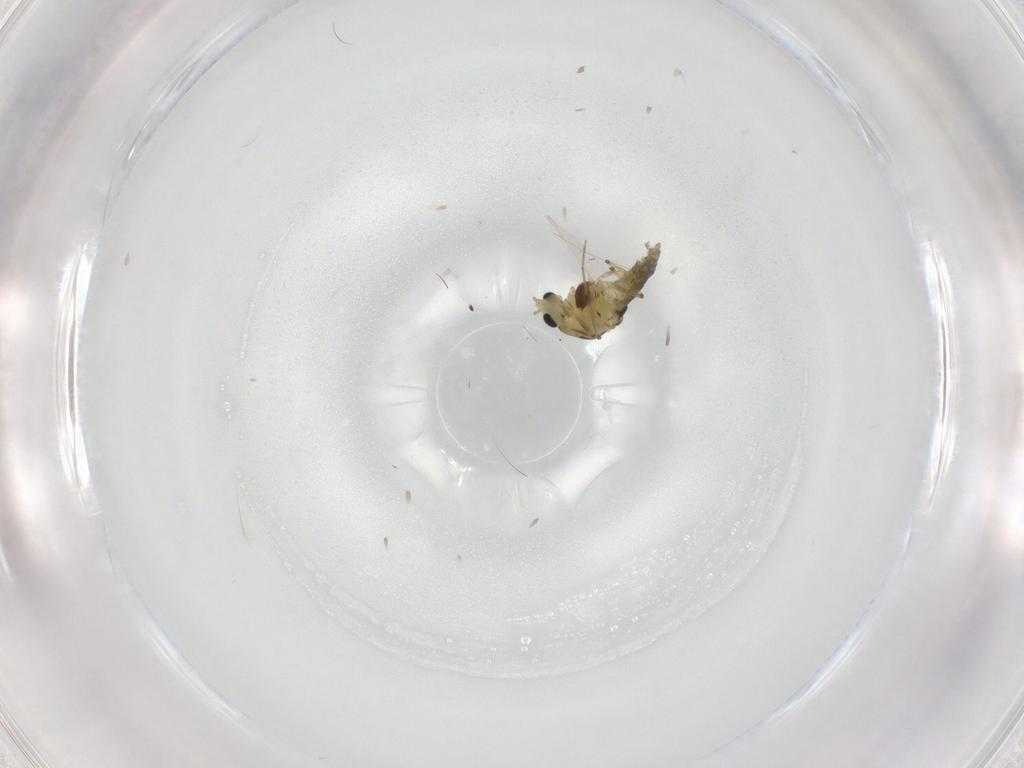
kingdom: Animalia
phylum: Arthropoda
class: Insecta
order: Diptera
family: Chironomidae
